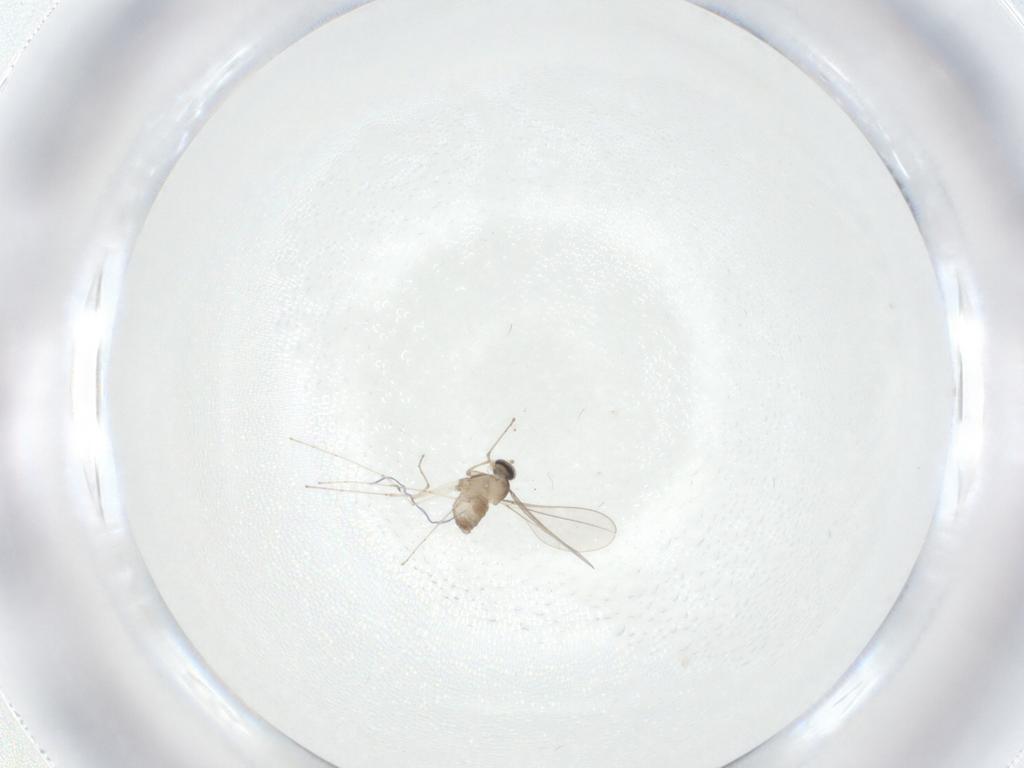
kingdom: Animalia
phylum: Arthropoda
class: Insecta
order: Diptera
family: Cecidomyiidae
